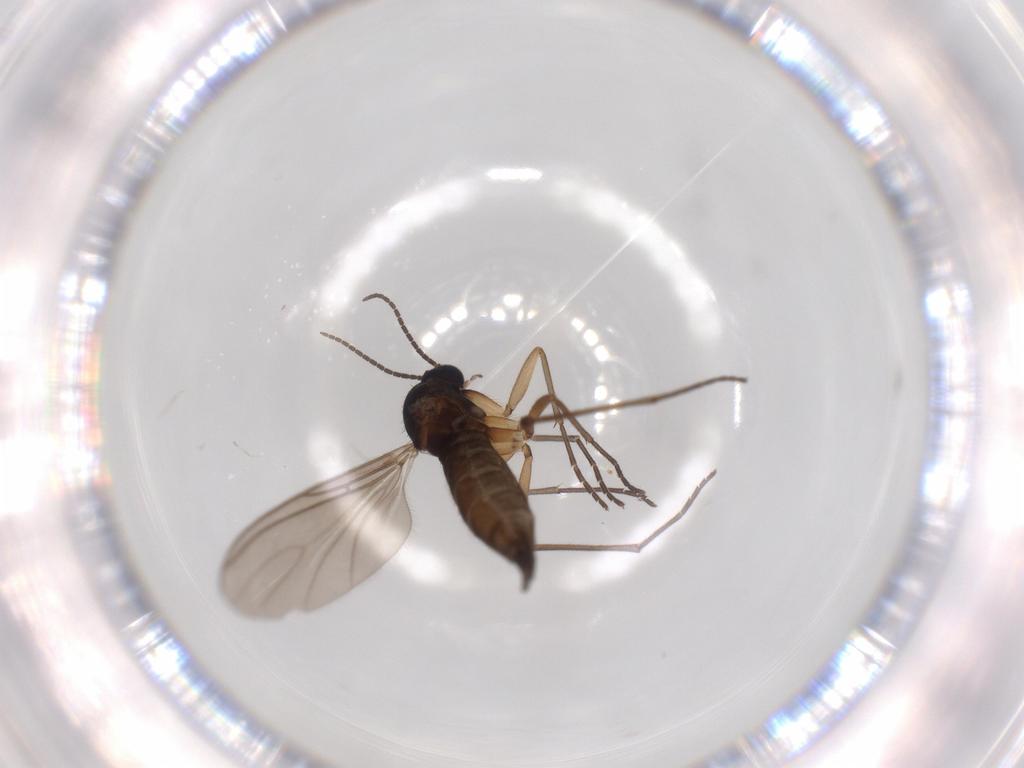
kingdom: Animalia
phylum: Arthropoda
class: Insecta
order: Diptera
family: Sciaridae
